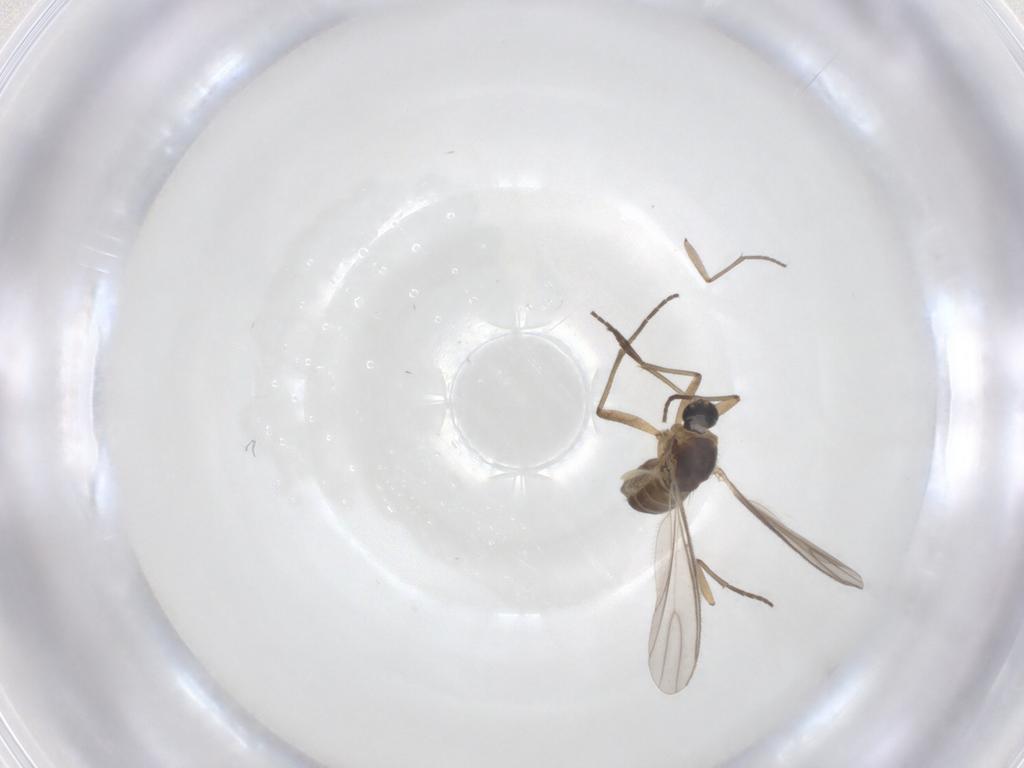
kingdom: Animalia
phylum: Arthropoda
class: Insecta
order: Diptera
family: Sciaridae
